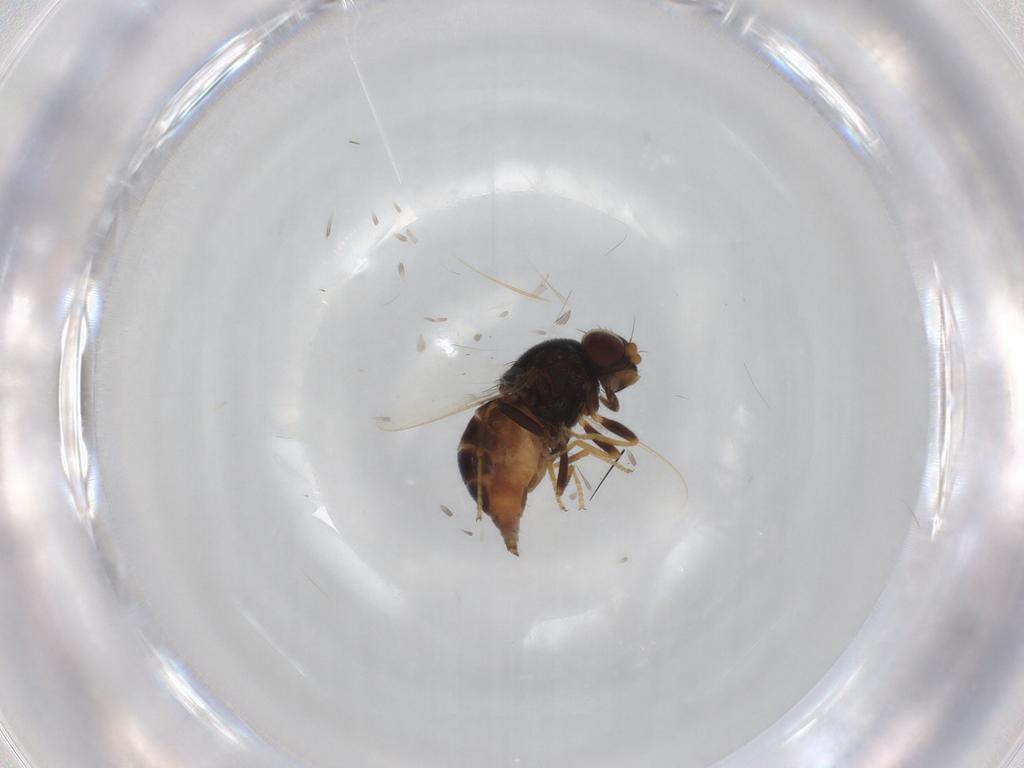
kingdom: Animalia
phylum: Arthropoda
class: Insecta
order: Diptera
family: Chloropidae
